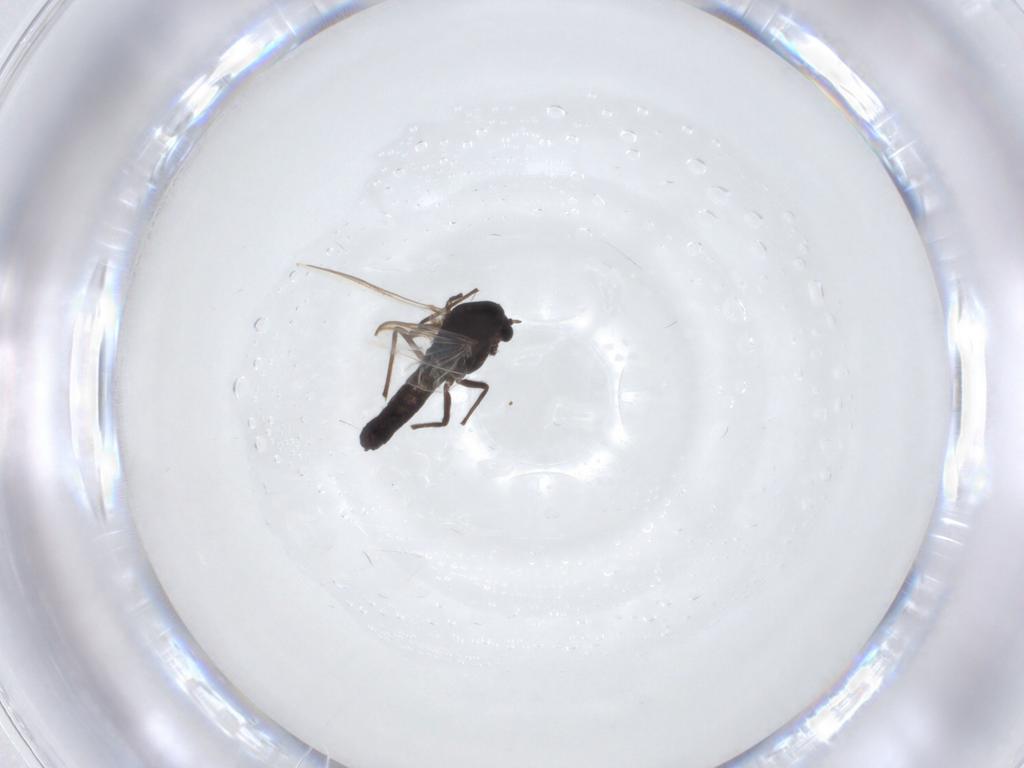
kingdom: Animalia
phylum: Arthropoda
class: Insecta
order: Diptera
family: Chironomidae
